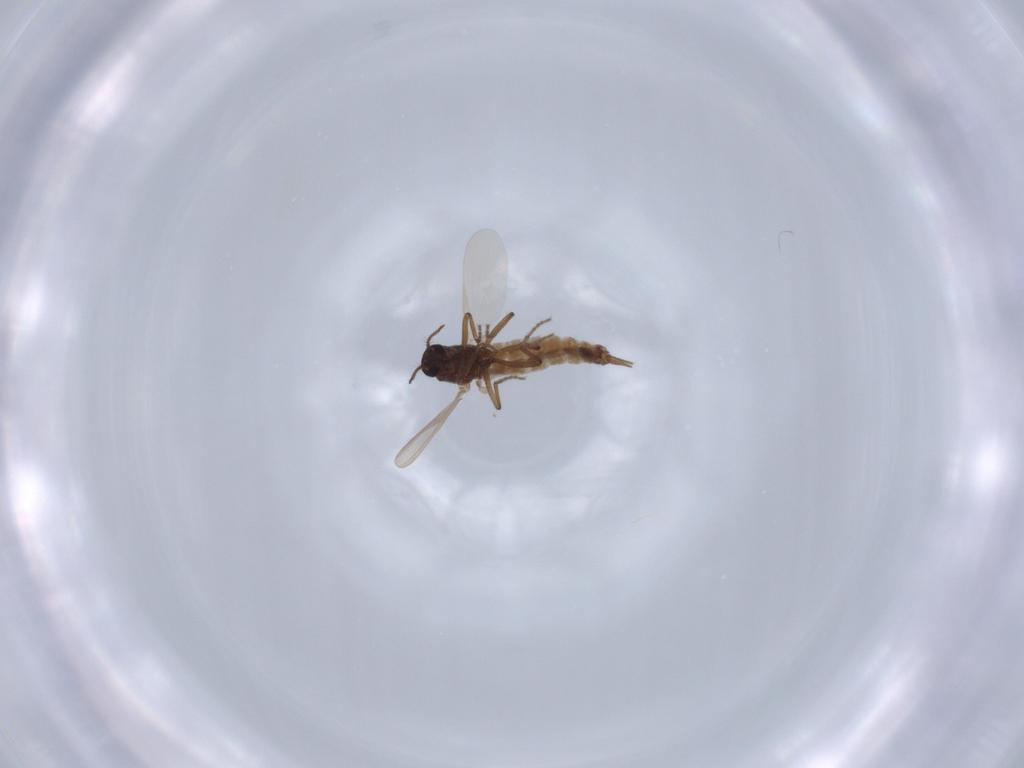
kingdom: Animalia
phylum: Arthropoda
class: Insecta
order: Diptera
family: Ceratopogonidae
